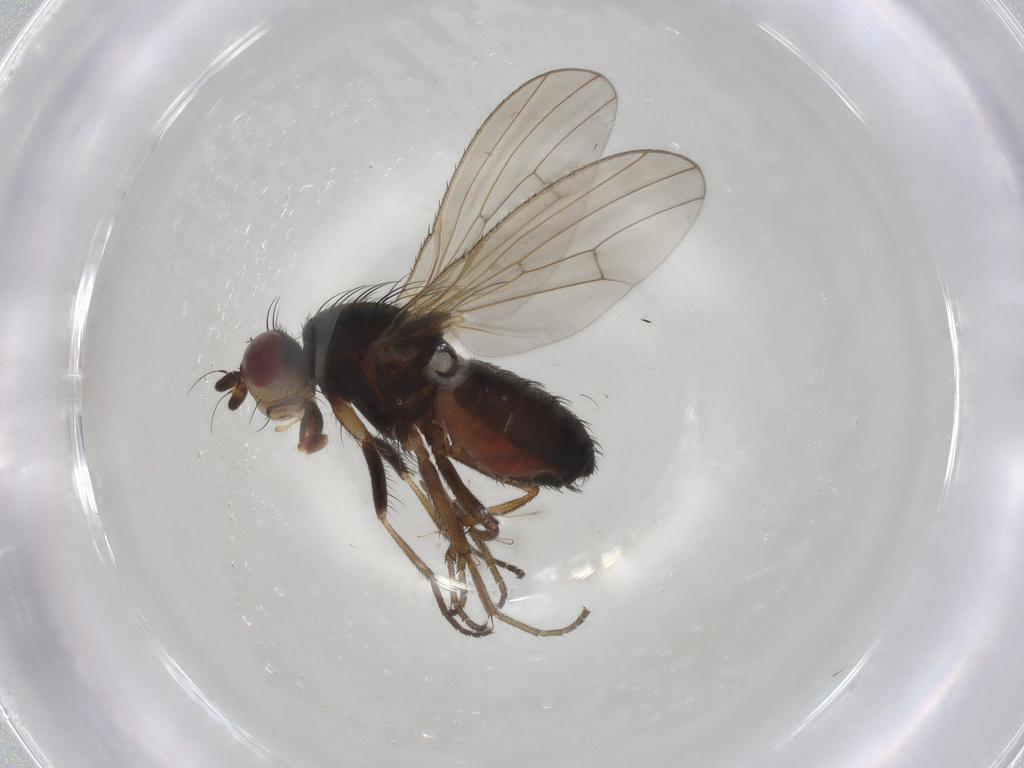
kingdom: Animalia
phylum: Arthropoda
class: Insecta
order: Diptera
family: Heleomyzidae
